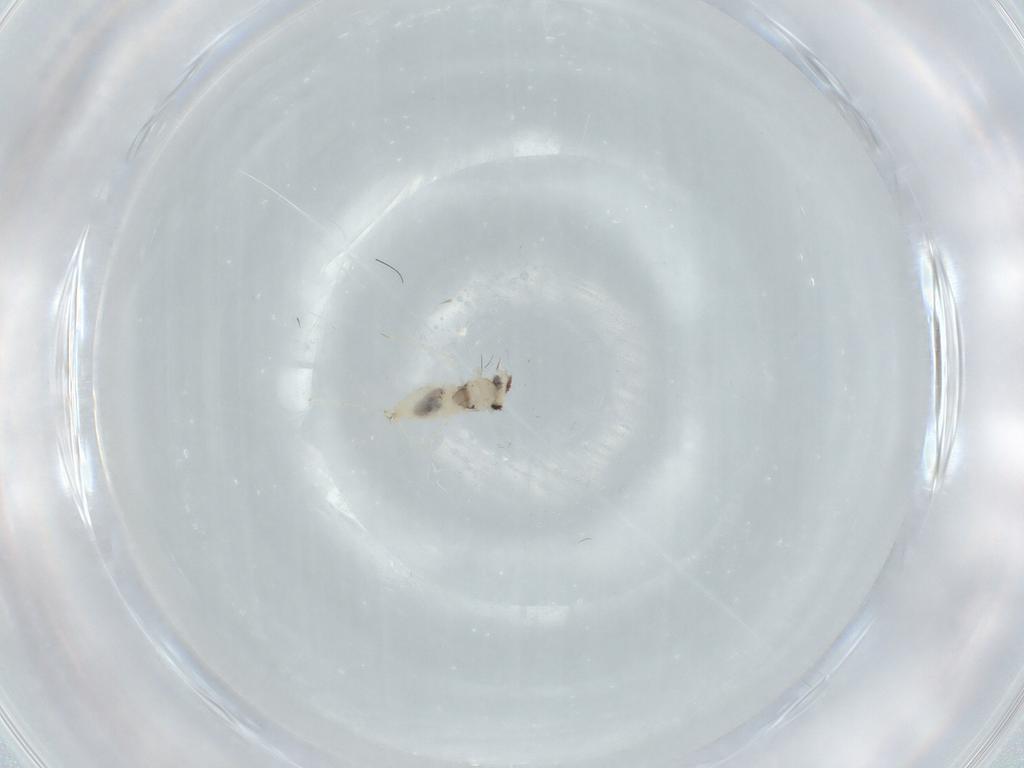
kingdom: Animalia
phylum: Arthropoda
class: Insecta
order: Diptera
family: Cecidomyiidae
